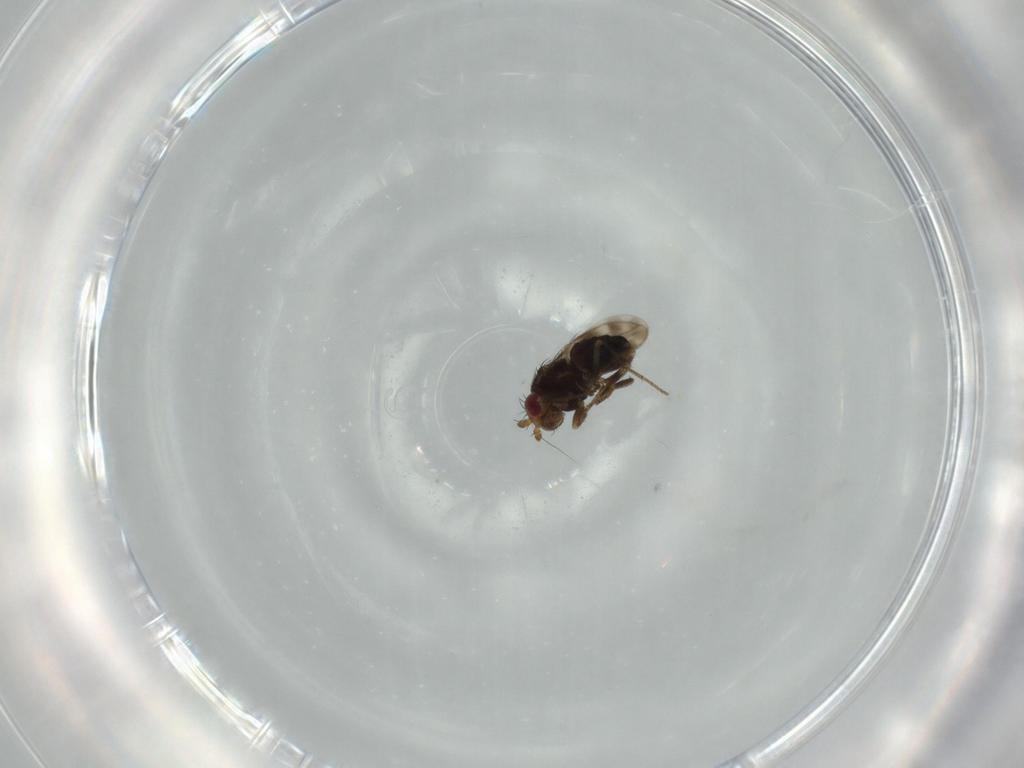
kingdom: Animalia
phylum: Arthropoda
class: Insecta
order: Diptera
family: Sphaeroceridae
